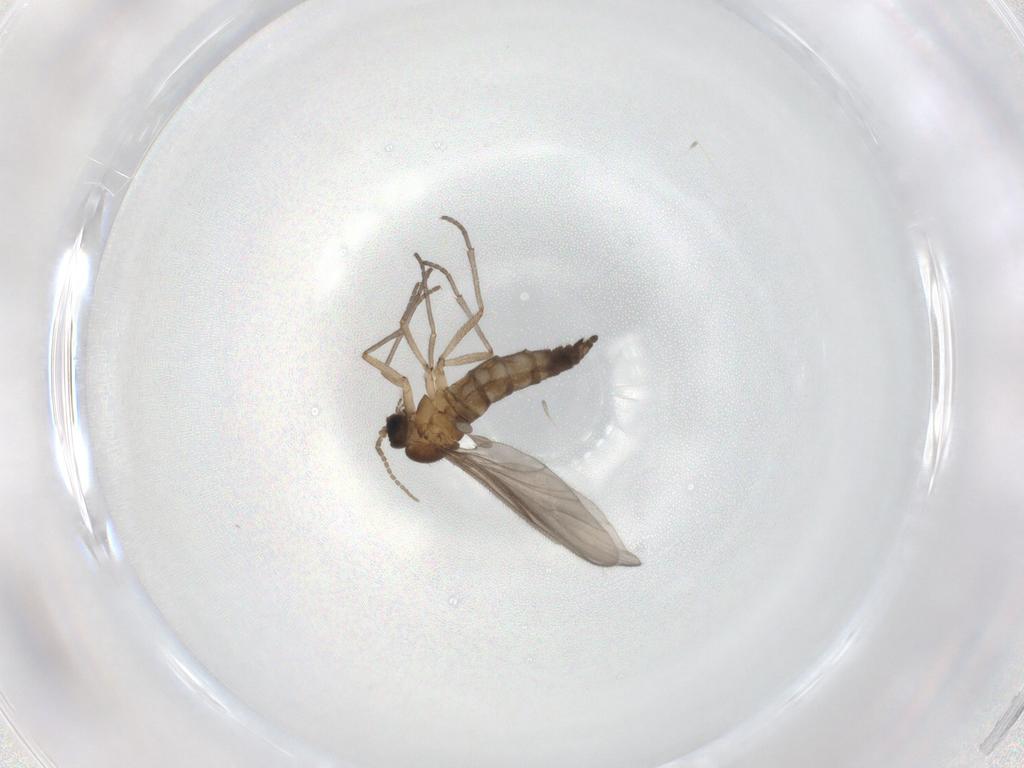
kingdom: Animalia
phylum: Arthropoda
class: Insecta
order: Diptera
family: Sciaridae
